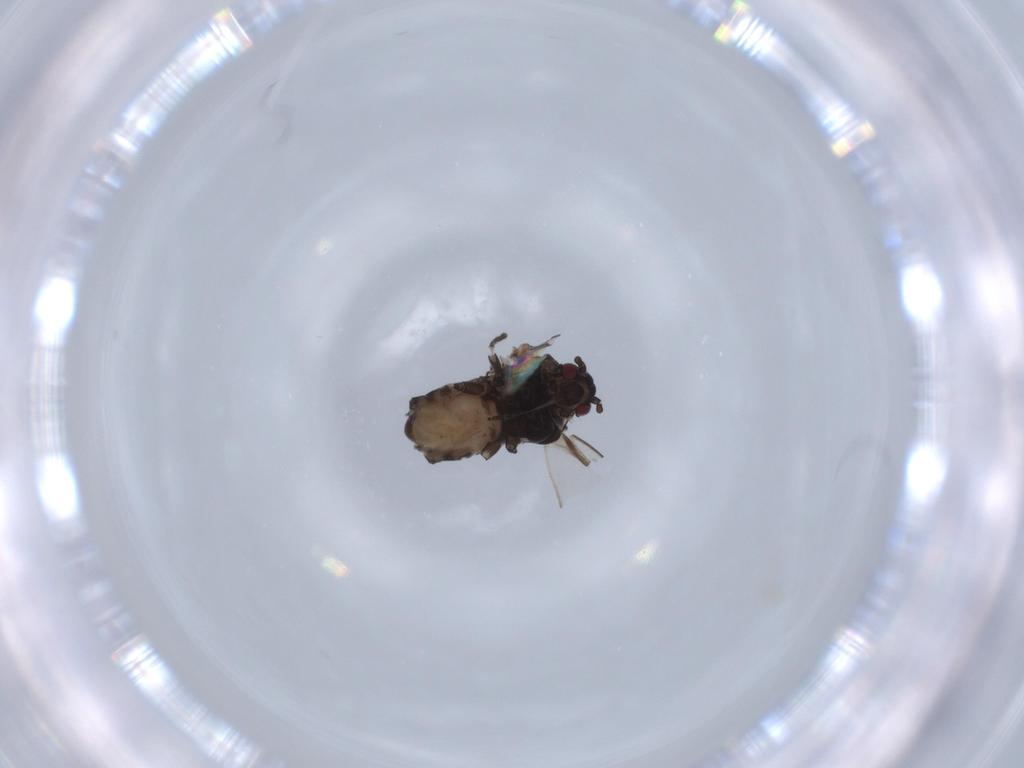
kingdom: Animalia
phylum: Arthropoda
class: Insecta
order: Hemiptera
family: Aphididae
